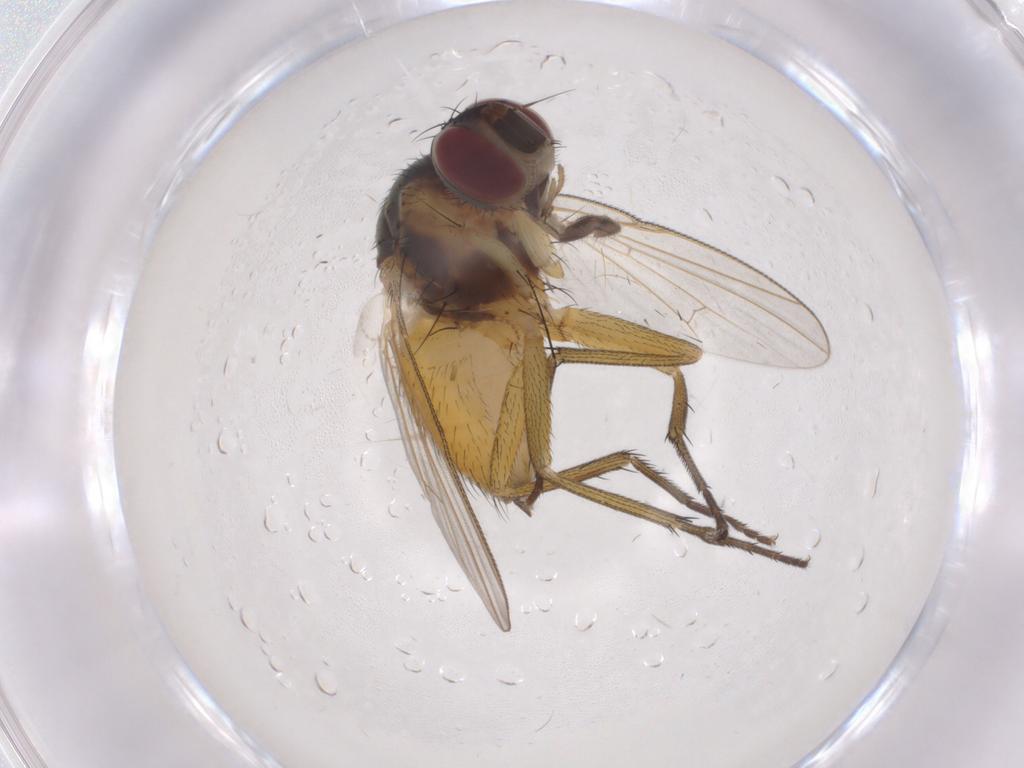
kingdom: Animalia
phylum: Arthropoda
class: Insecta
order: Diptera
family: Muscidae
